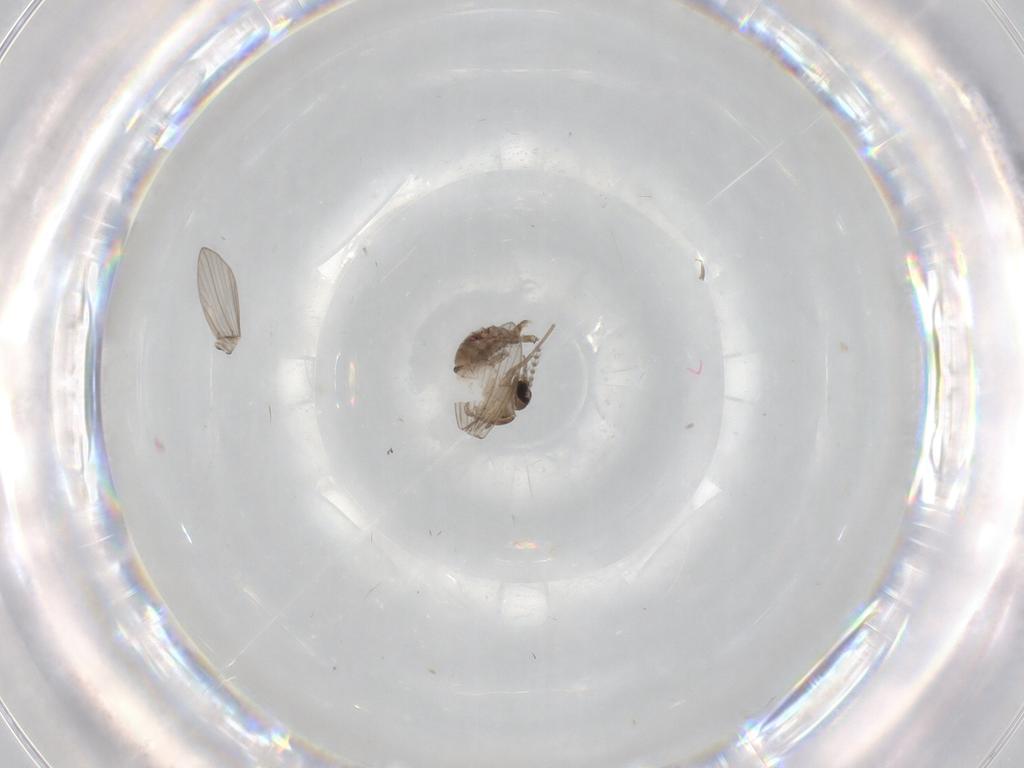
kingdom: Animalia
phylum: Arthropoda
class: Insecta
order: Diptera
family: Psychodidae
